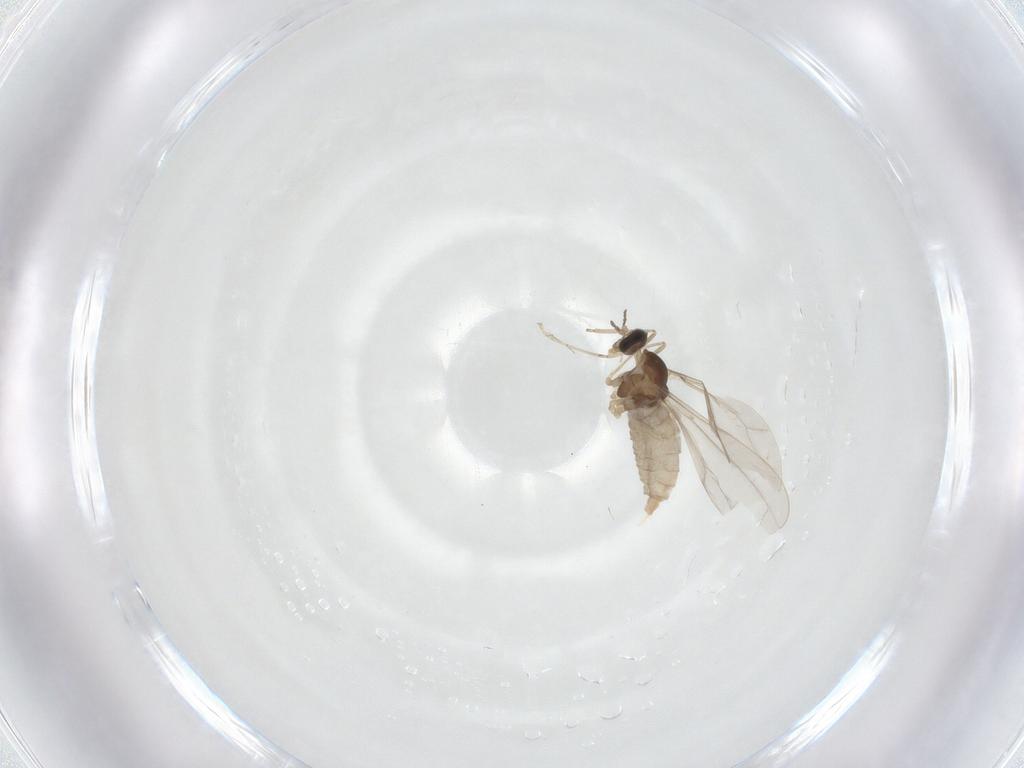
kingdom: Animalia
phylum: Arthropoda
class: Insecta
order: Diptera
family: Cecidomyiidae
